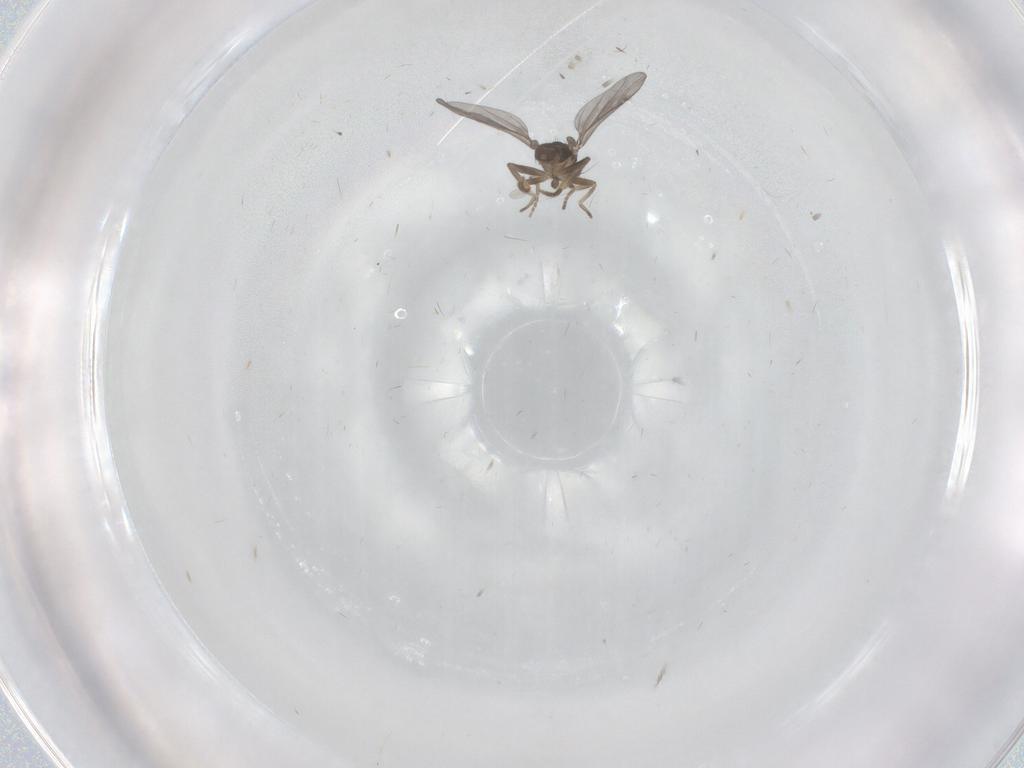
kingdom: Animalia
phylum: Arthropoda
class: Insecta
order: Diptera
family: Chironomidae
